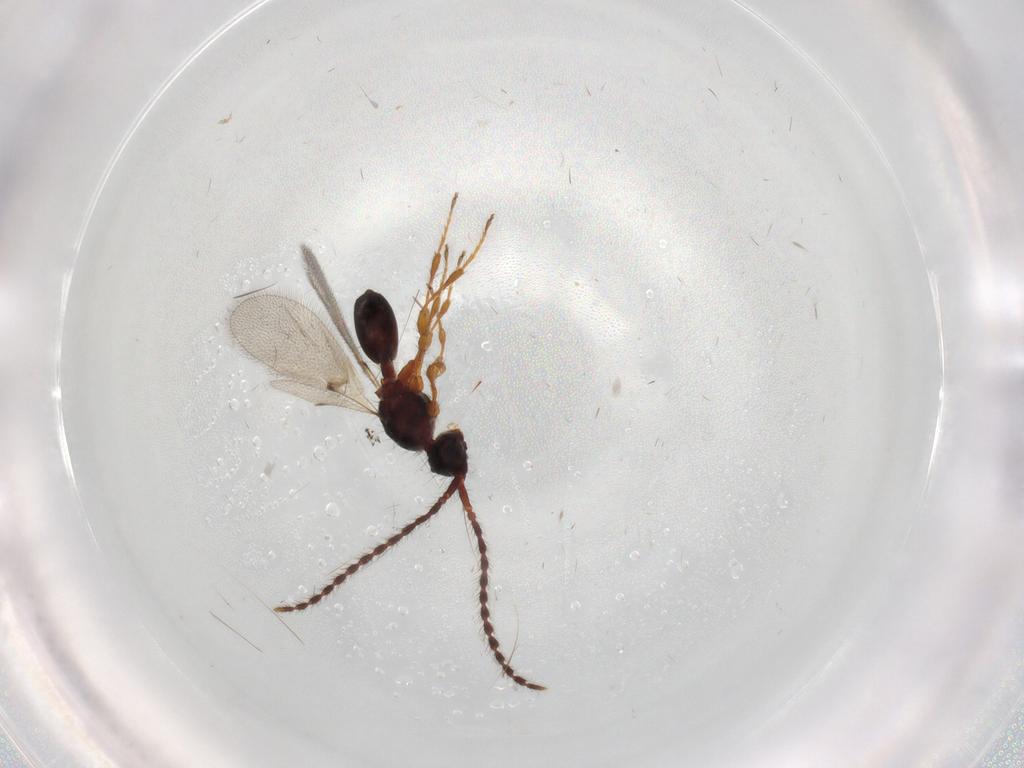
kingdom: Animalia
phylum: Arthropoda
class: Insecta
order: Hymenoptera
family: Diapriidae
